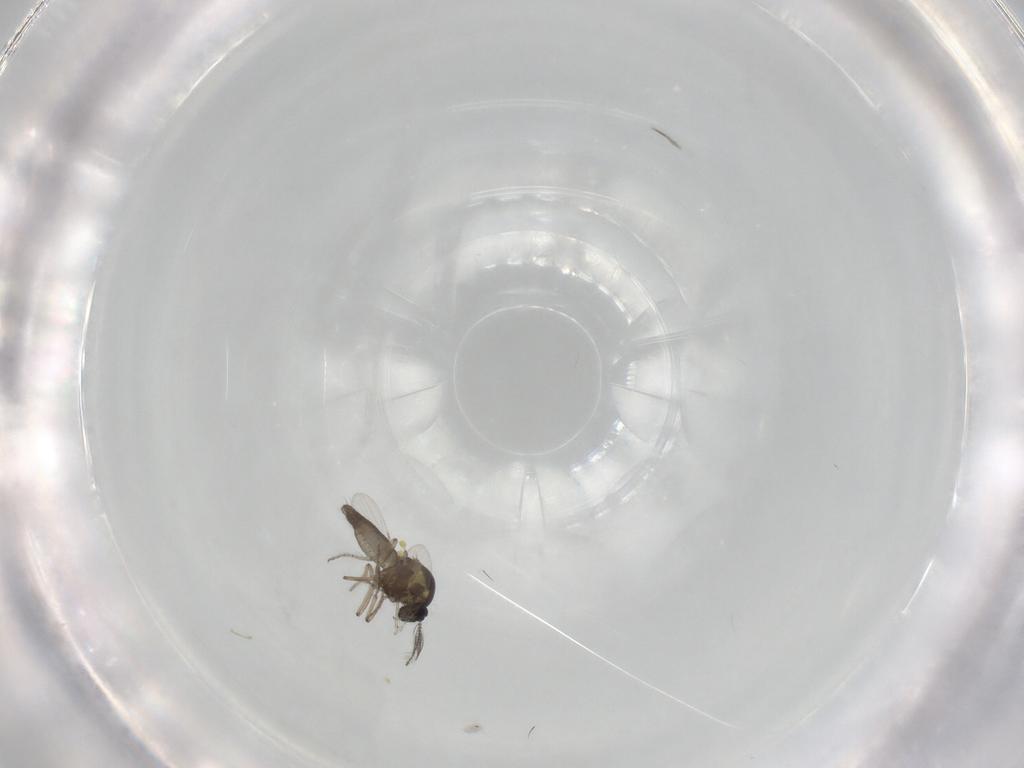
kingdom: Animalia
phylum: Arthropoda
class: Insecta
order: Diptera
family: Ceratopogonidae
